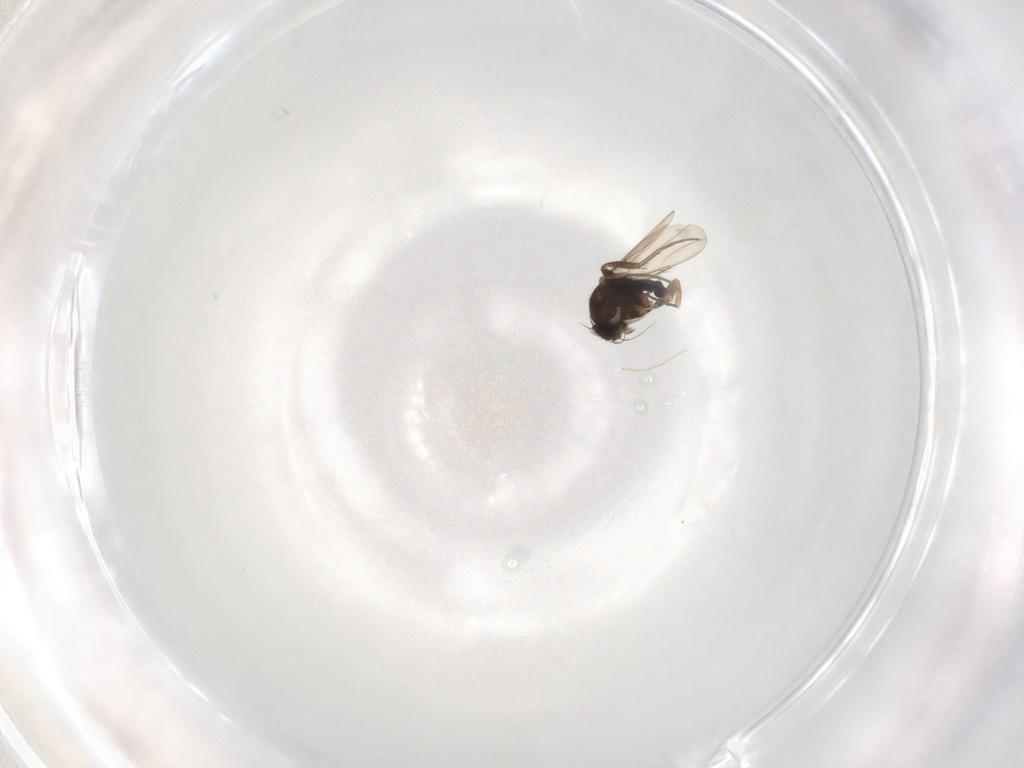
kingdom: Animalia
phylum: Arthropoda
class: Insecta
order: Diptera
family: Phoridae
